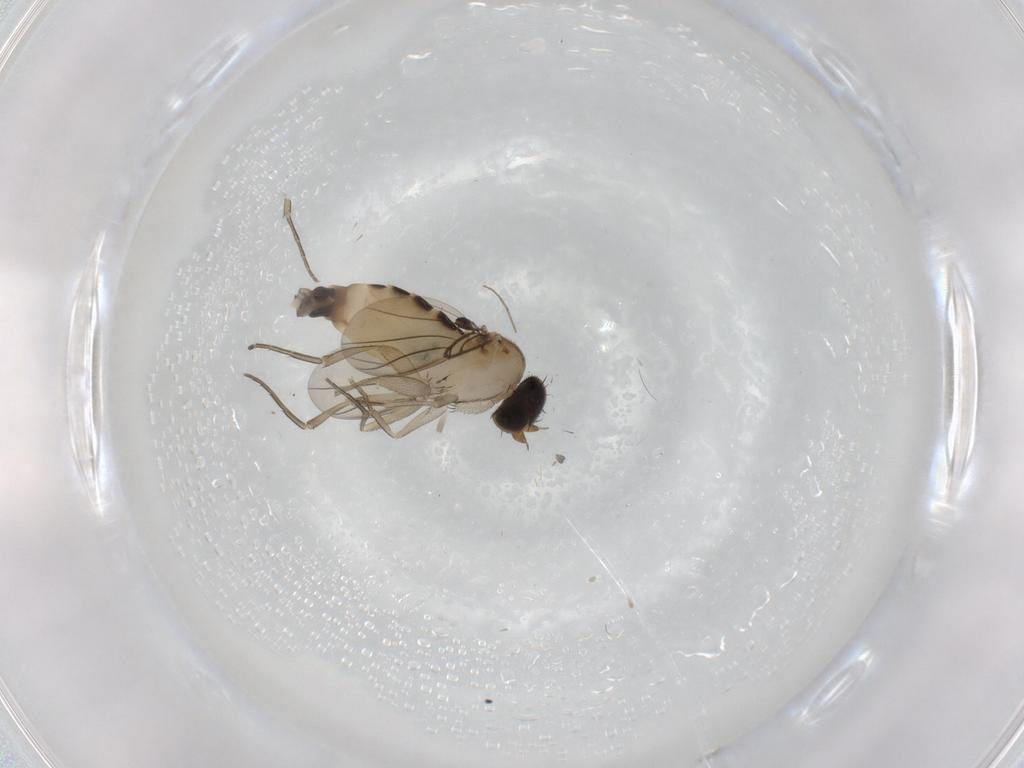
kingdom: Animalia
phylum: Arthropoda
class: Insecta
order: Diptera
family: Phoridae
